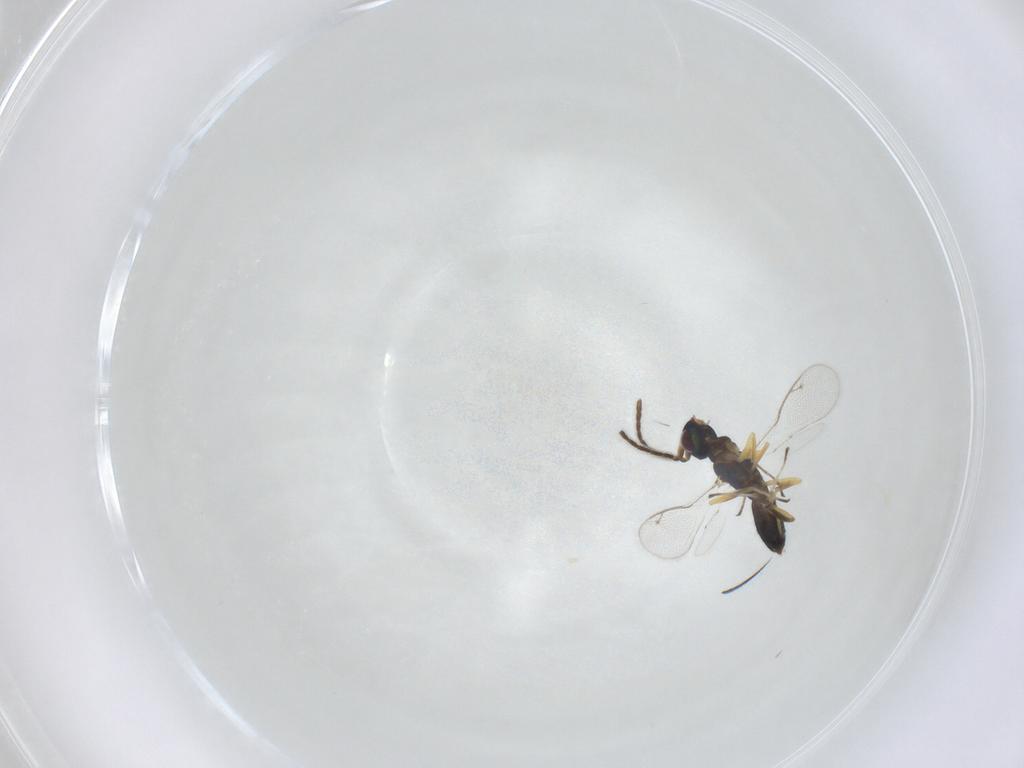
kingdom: Animalia
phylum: Arthropoda
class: Insecta
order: Hymenoptera
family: Eupelmidae
